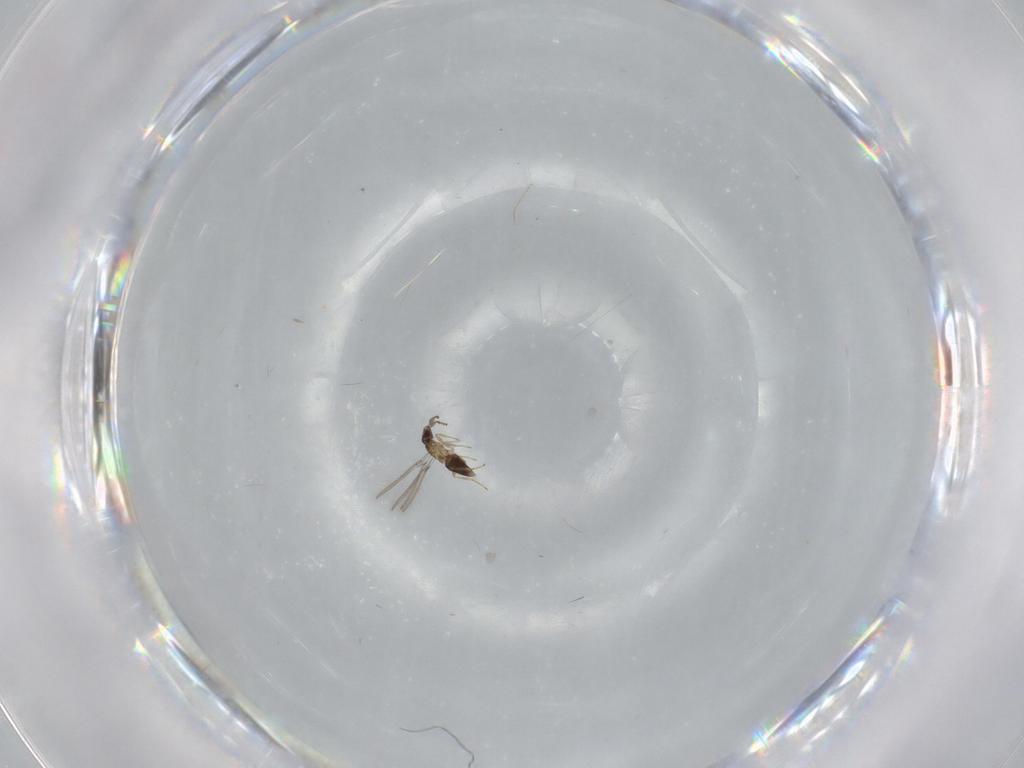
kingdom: Animalia
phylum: Arthropoda
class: Insecta
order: Hymenoptera
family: Mymaridae
